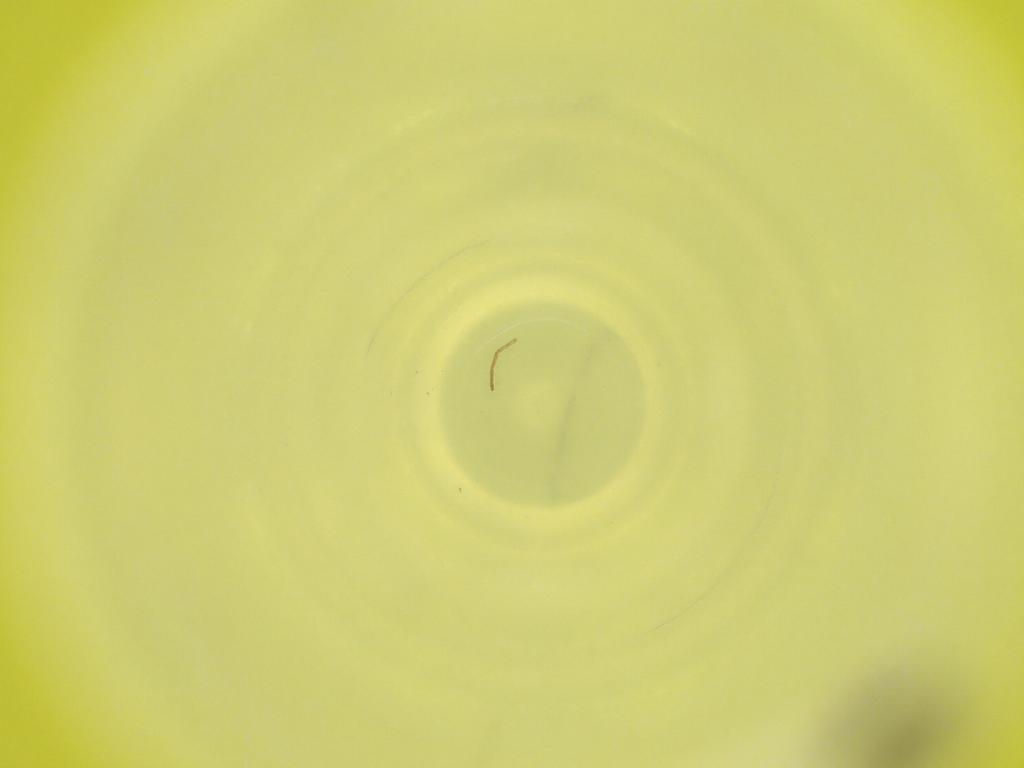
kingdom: Animalia
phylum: Arthropoda
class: Insecta
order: Diptera
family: Cecidomyiidae
